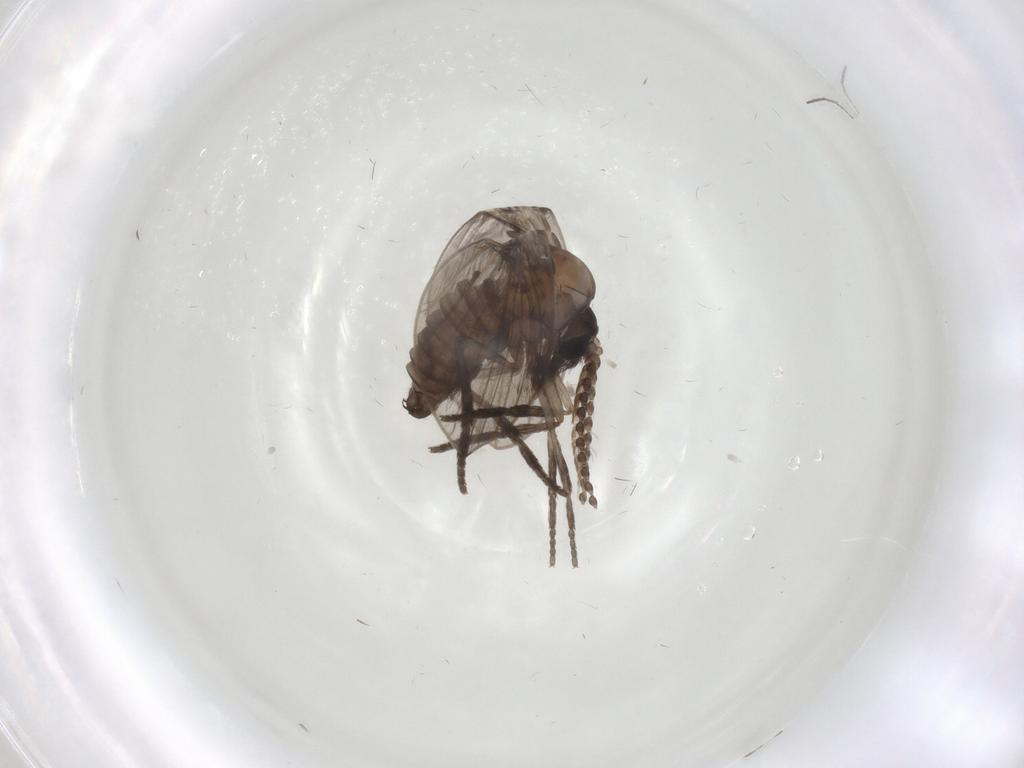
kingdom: Animalia
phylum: Arthropoda
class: Insecta
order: Diptera
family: Psychodidae
